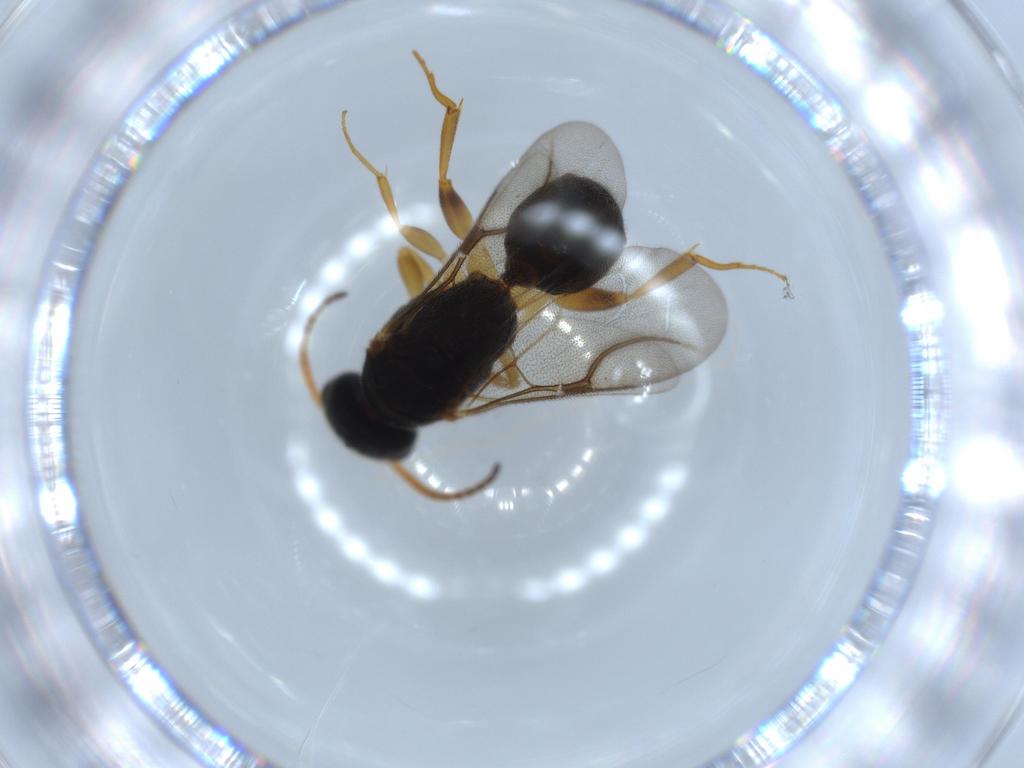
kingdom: Animalia
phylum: Arthropoda
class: Insecta
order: Hymenoptera
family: Bethylidae
